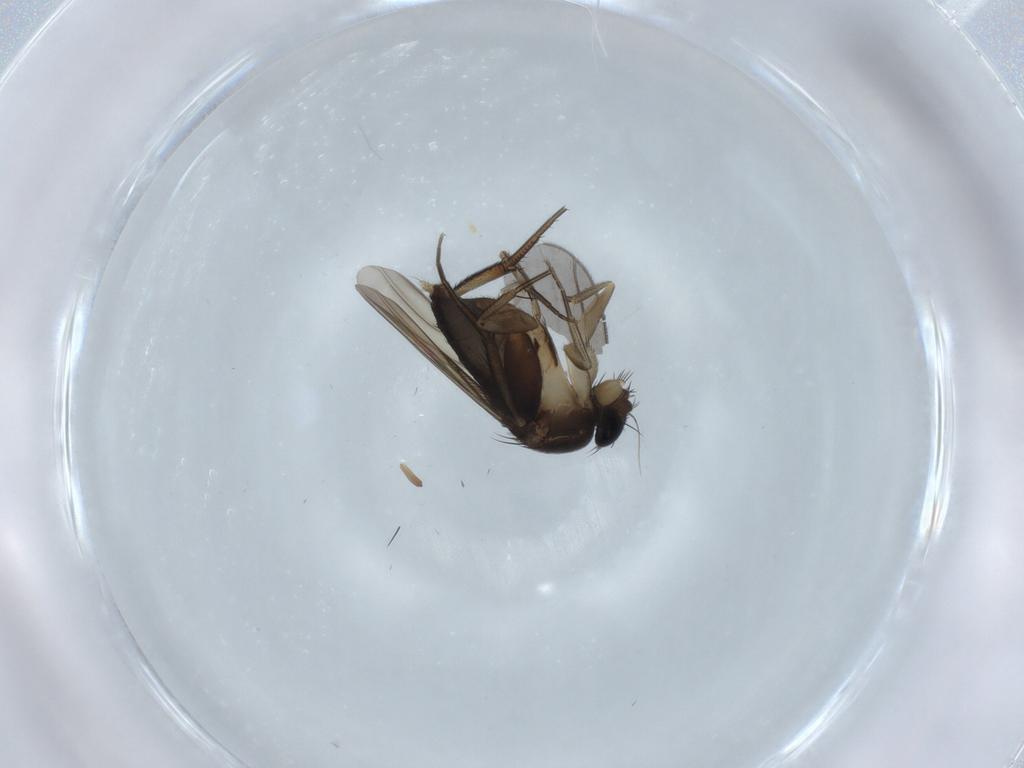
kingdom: Animalia
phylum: Arthropoda
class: Insecta
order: Diptera
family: Phoridae
